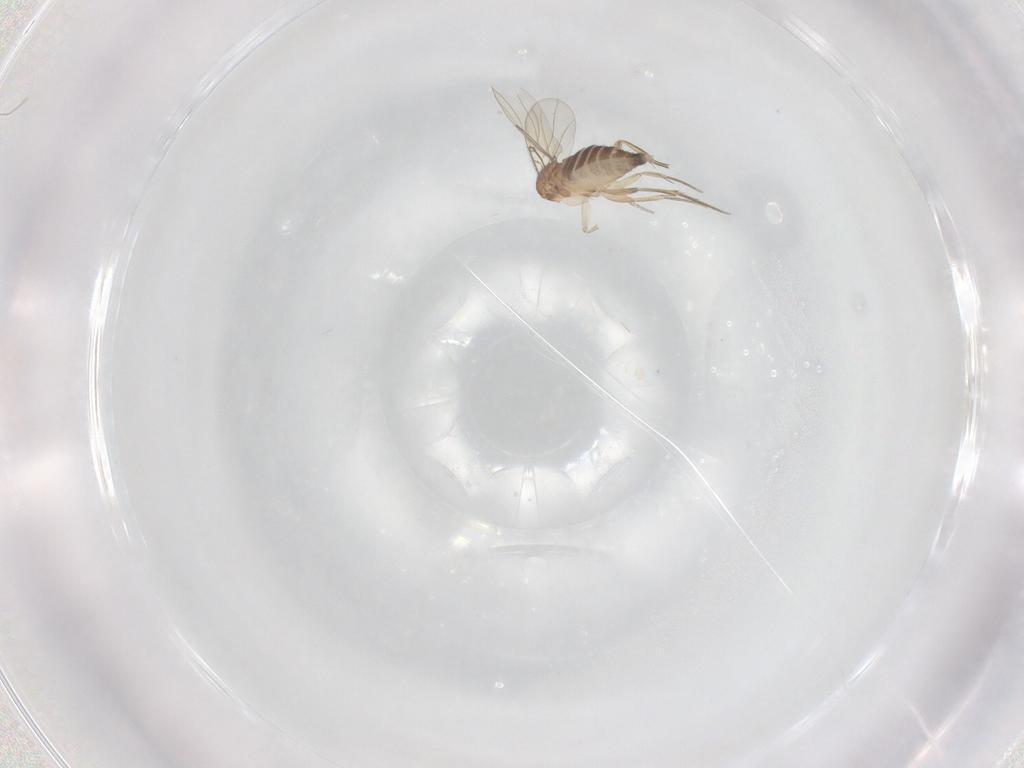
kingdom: Animalia
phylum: Arthropoda
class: Insecta
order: Diptera
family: Phoridae
